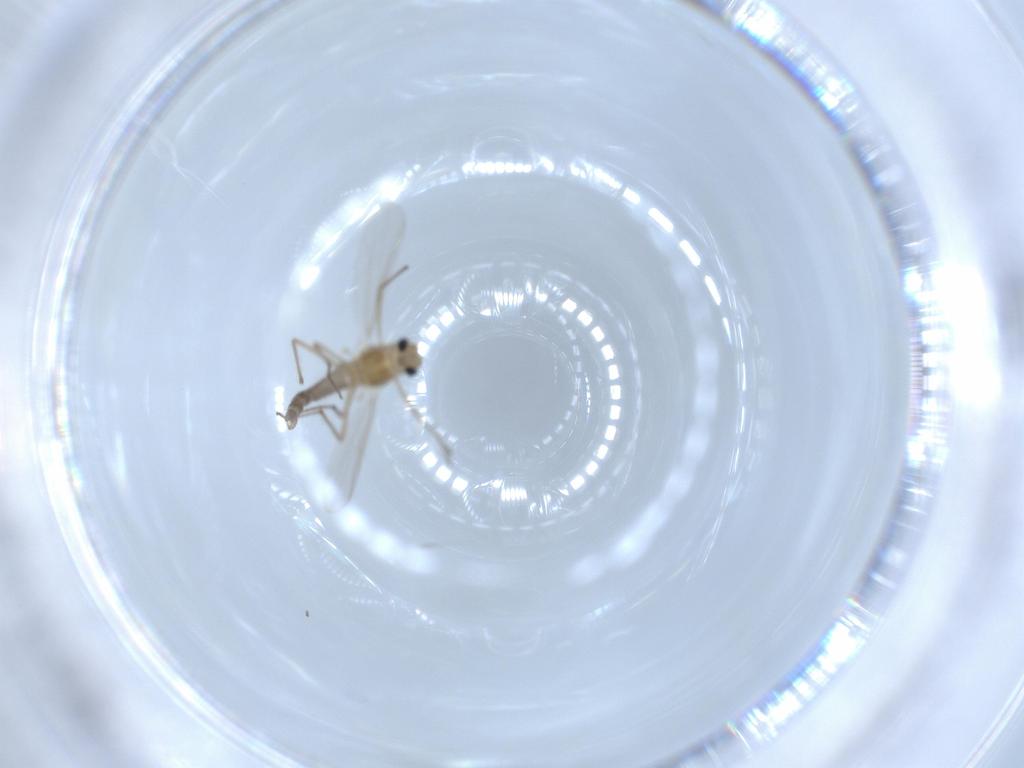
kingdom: Animalia
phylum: Arthropoda
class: Insecta
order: Diptera
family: Chironomidae
